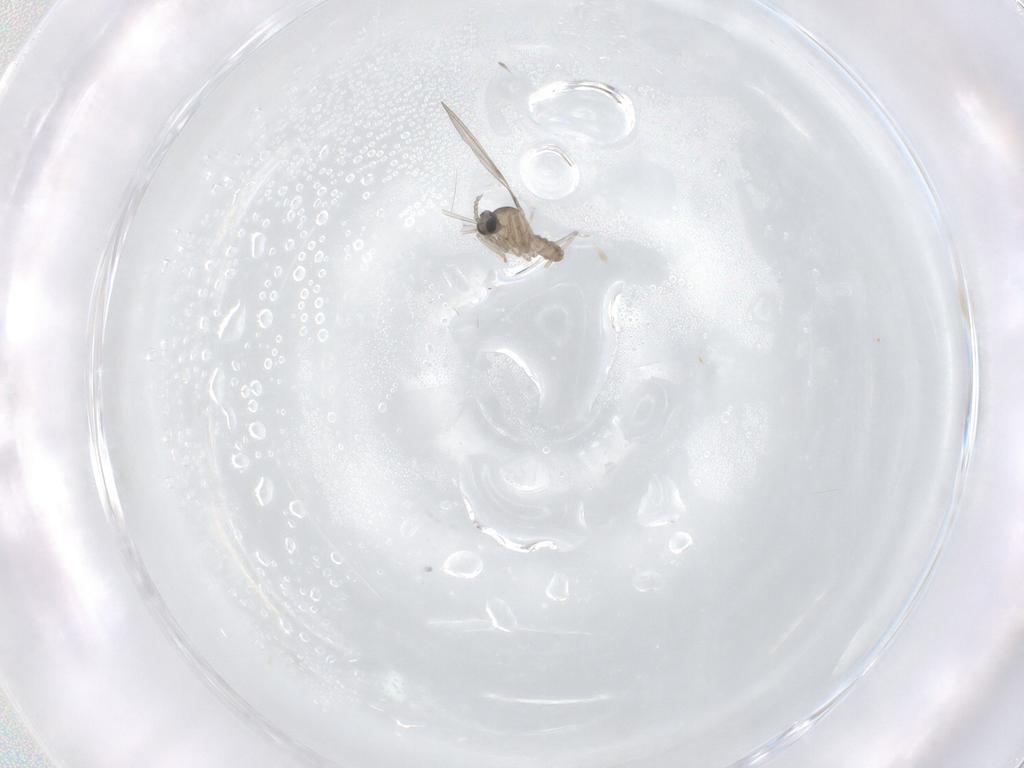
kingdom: Animalia
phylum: Arthropoda
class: Insecta
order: Diptera
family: Cecidomyiidae
